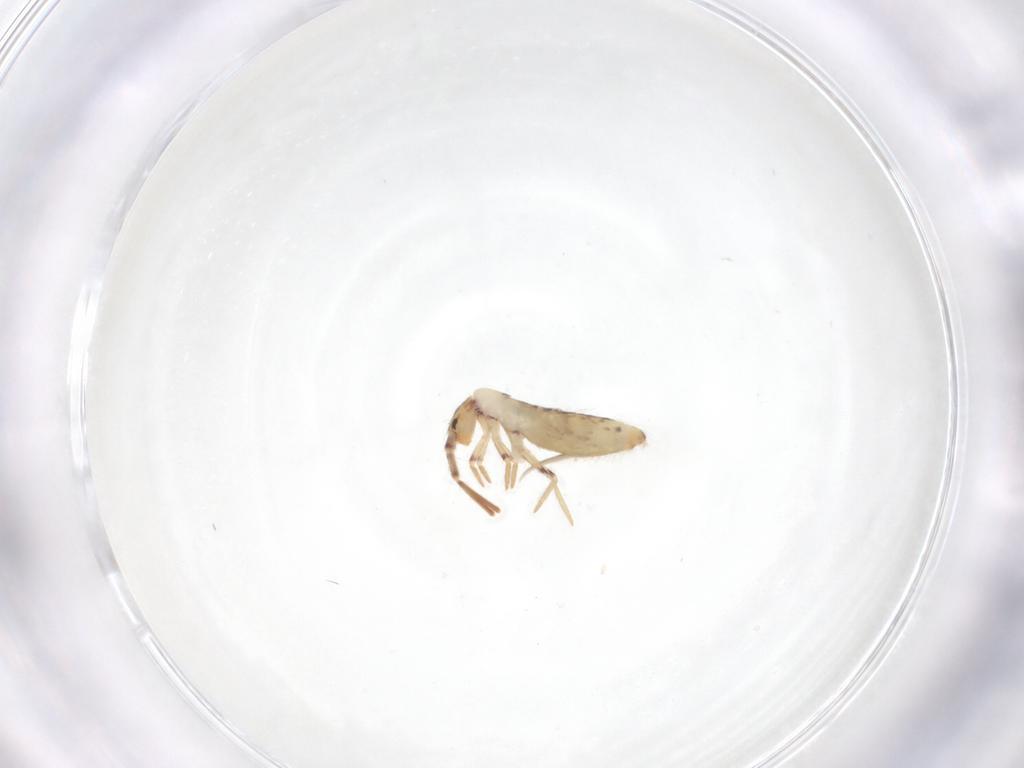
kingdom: Animalia
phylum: Arthropoda
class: Collembola
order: Entomobryomorpha
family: Entomobryidae
